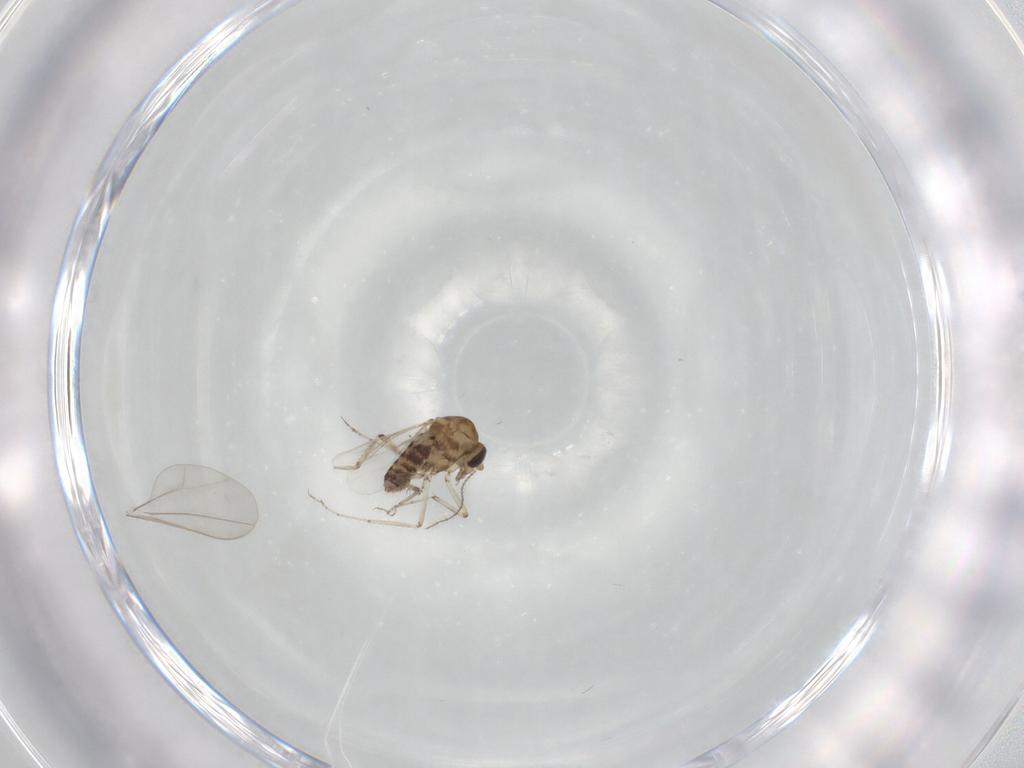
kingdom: Animalia
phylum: Arthropoda
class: Insecta
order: Diptera
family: Ceratopogonidae
